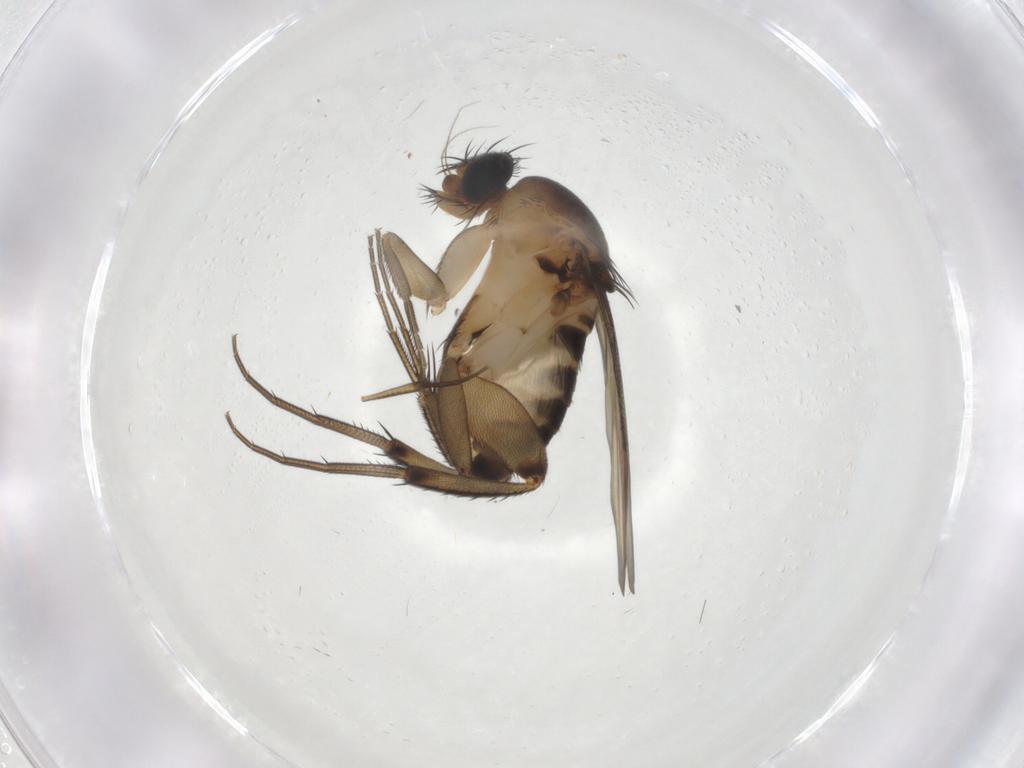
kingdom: Animalia
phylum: Arthropoda
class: Insecta
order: Diptera
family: Phoridae
